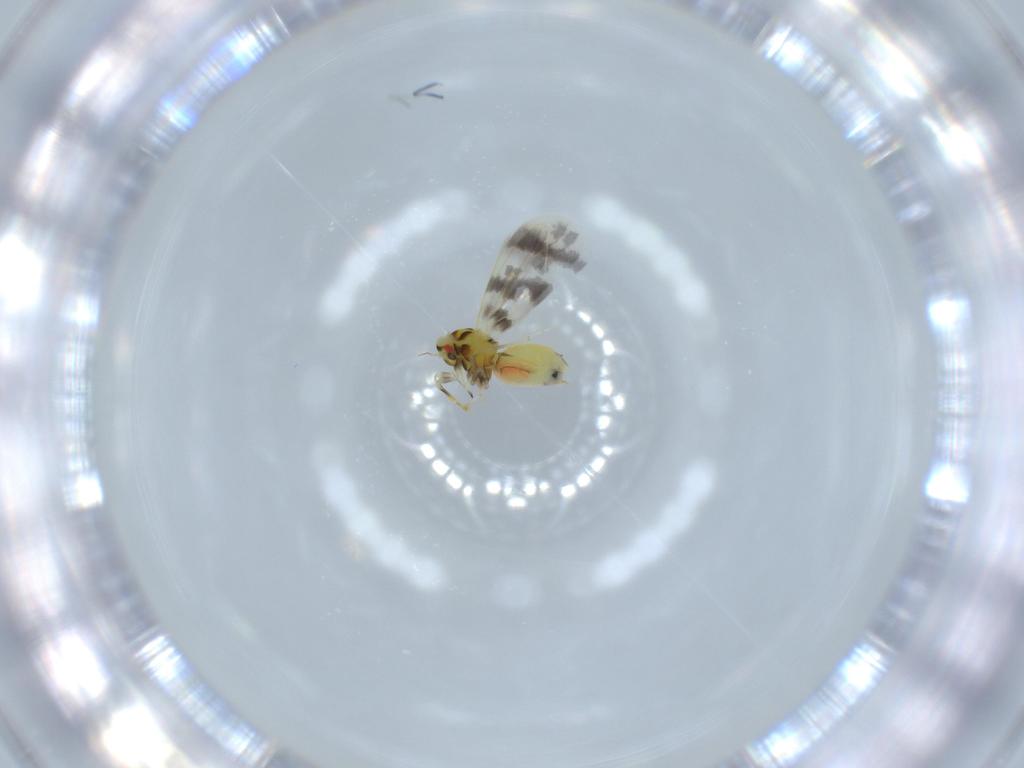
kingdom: Animalia
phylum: Arthropoda
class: Insecta
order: Hemiptera
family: Aleyrodidae
